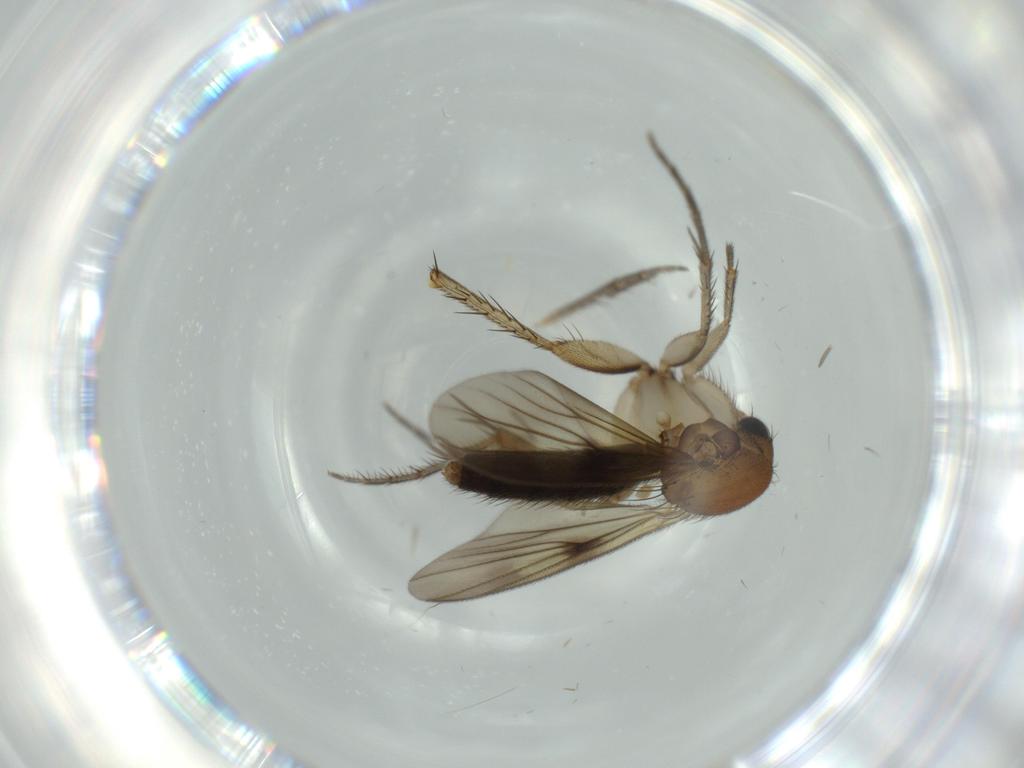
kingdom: Animalia
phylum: Arthropoda
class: Insecta
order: Diptera
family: Mycetophilidae
